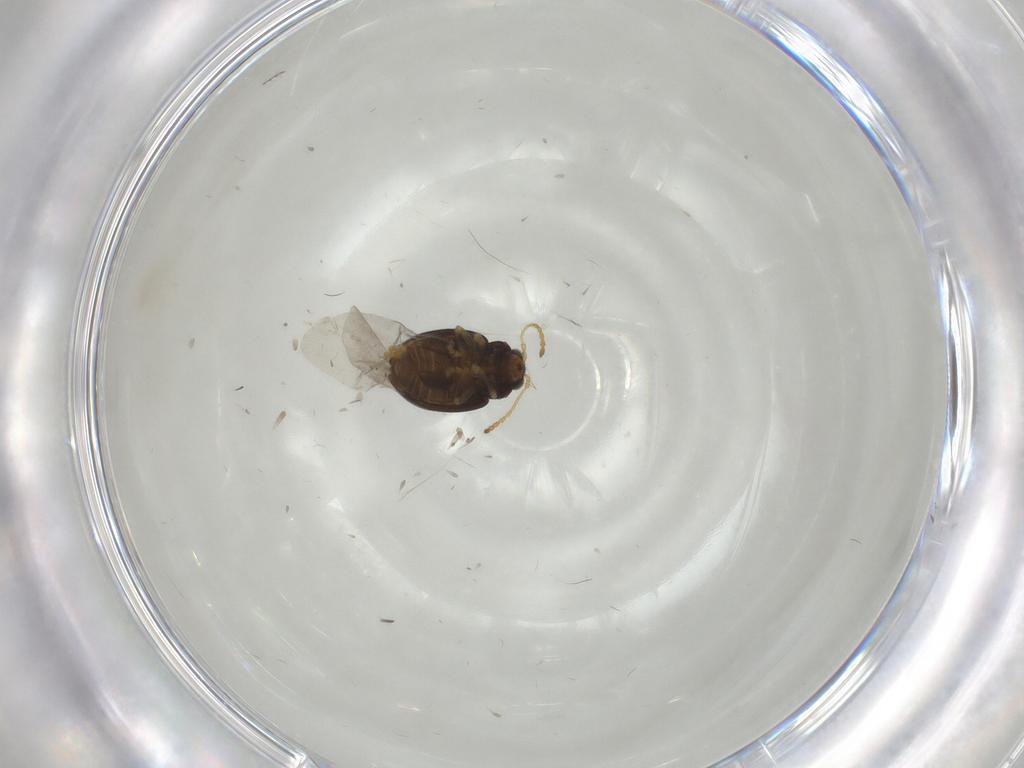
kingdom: Animalia
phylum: Arthropoda
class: Insecta
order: Coleoptera
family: Chrysomelidae
